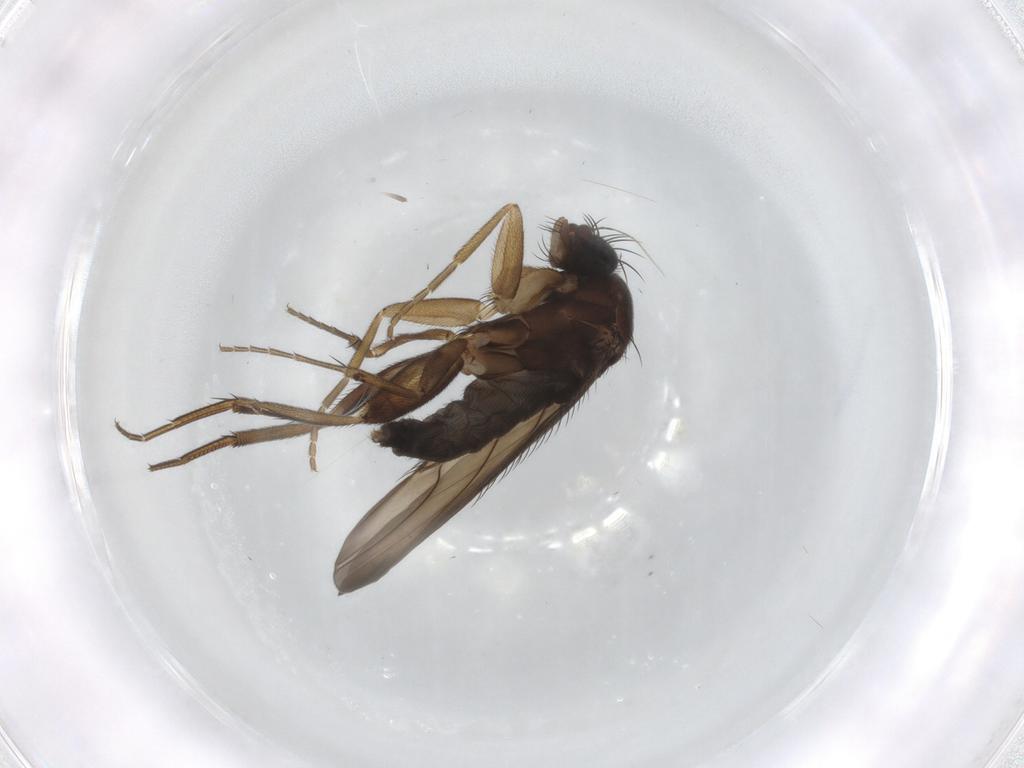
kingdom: Animalia
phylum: Arthropoda
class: Insecta
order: Diptera
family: Phoridae
